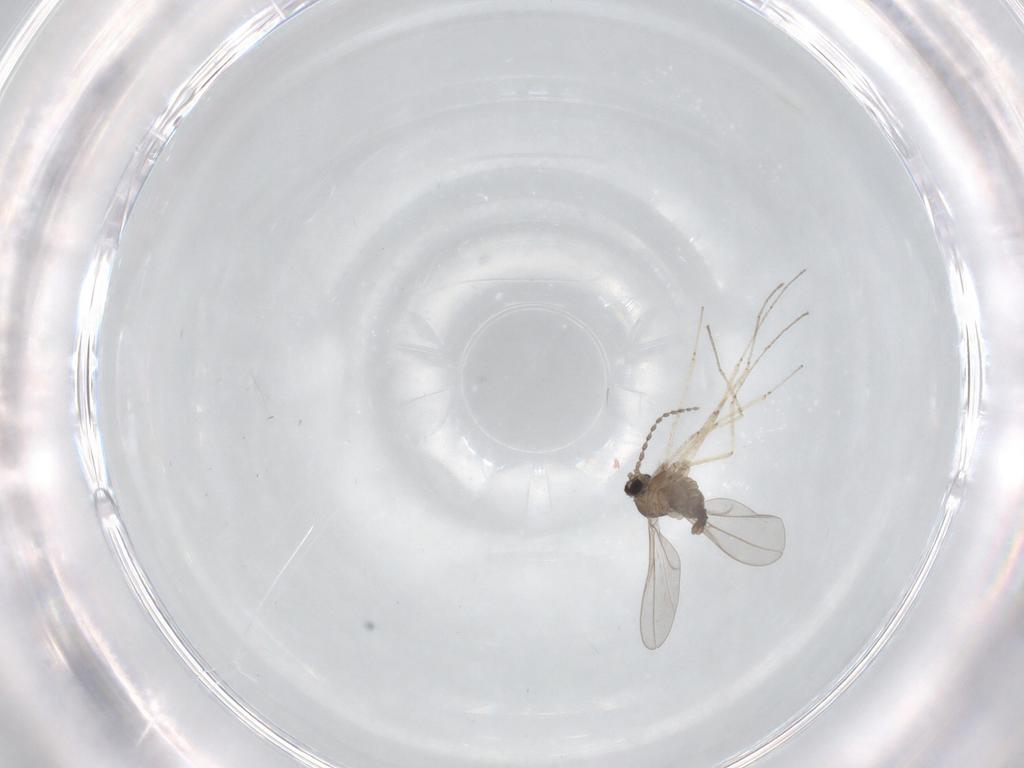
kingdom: Animalia
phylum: Arthropoda
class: Insecta
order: Diptera
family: Cecidomyiidae
